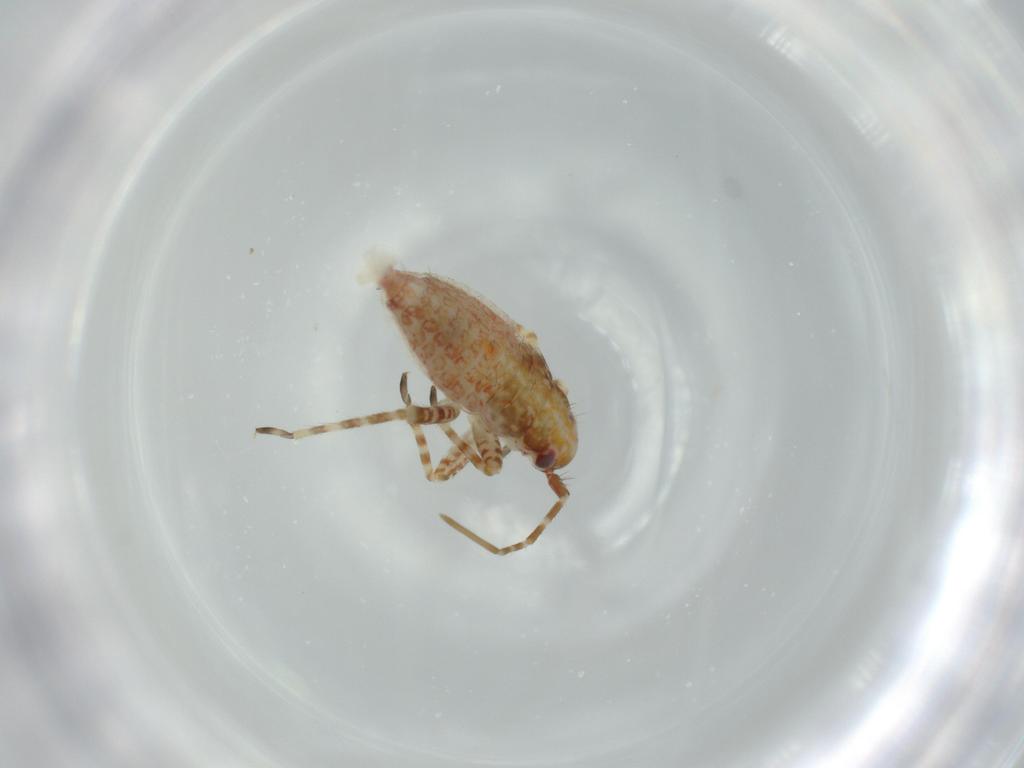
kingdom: Animalia
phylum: Arthropoda
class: Insecta
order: Hemiptera
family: Miridae
